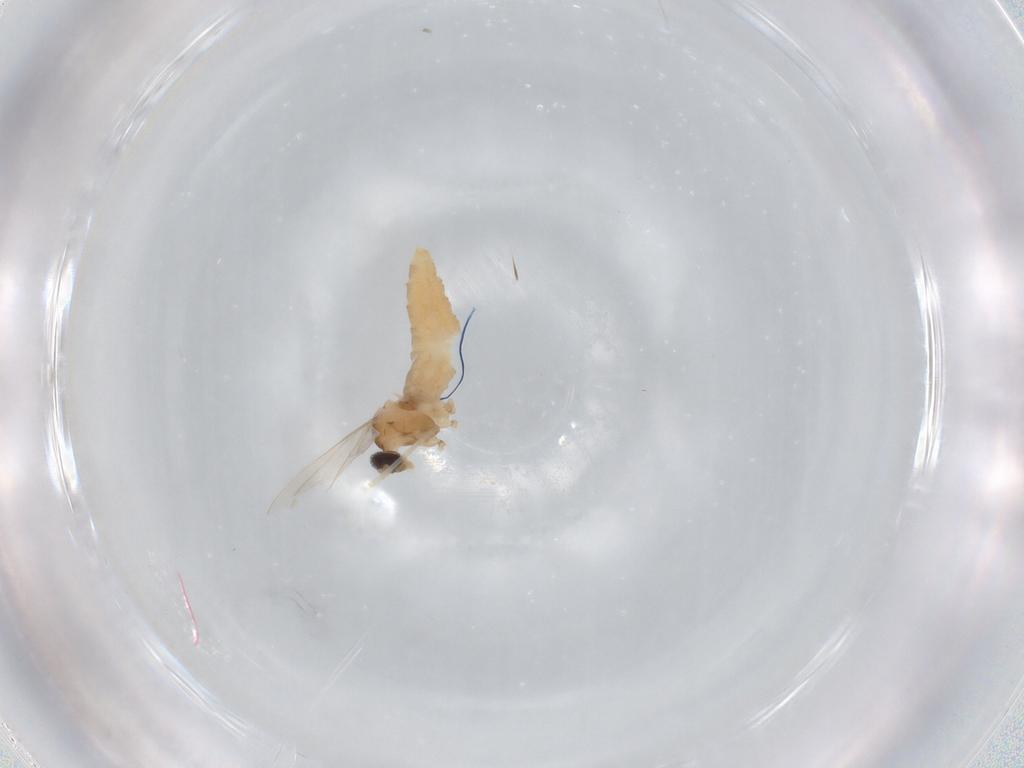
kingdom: Animalia
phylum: Arthropoda
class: Insecta
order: Diptera
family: Cecidomyiidae
